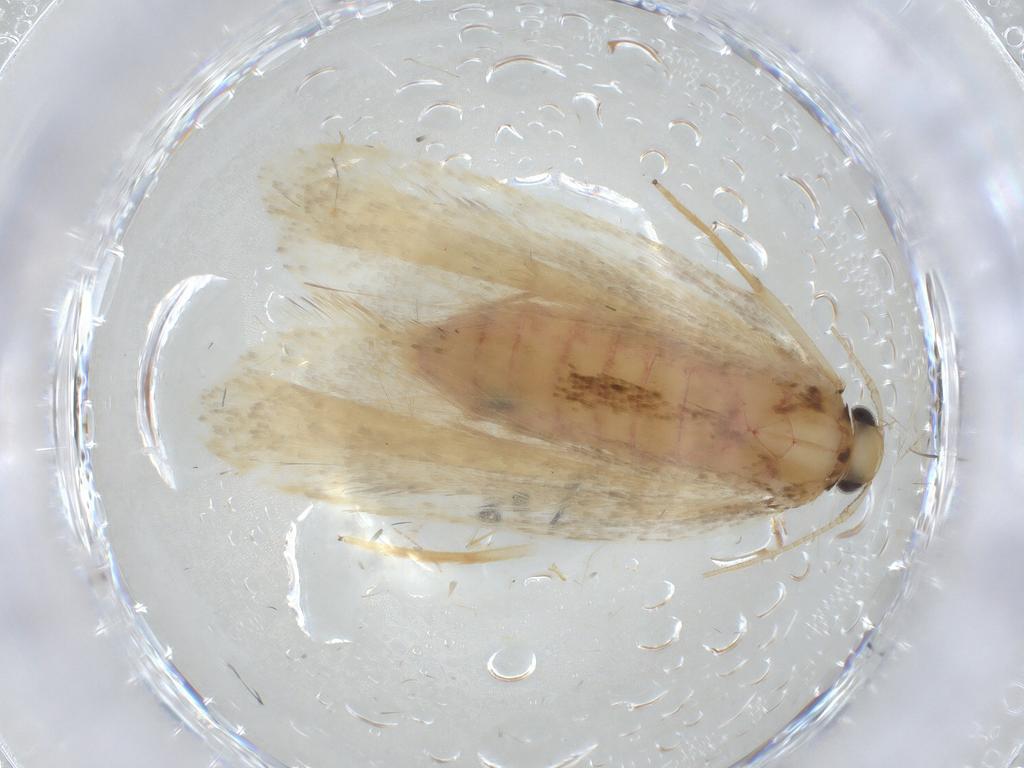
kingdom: Animalia
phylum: Arthropoda
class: Insecta
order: Lepidoptera
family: Lecithoceridae
